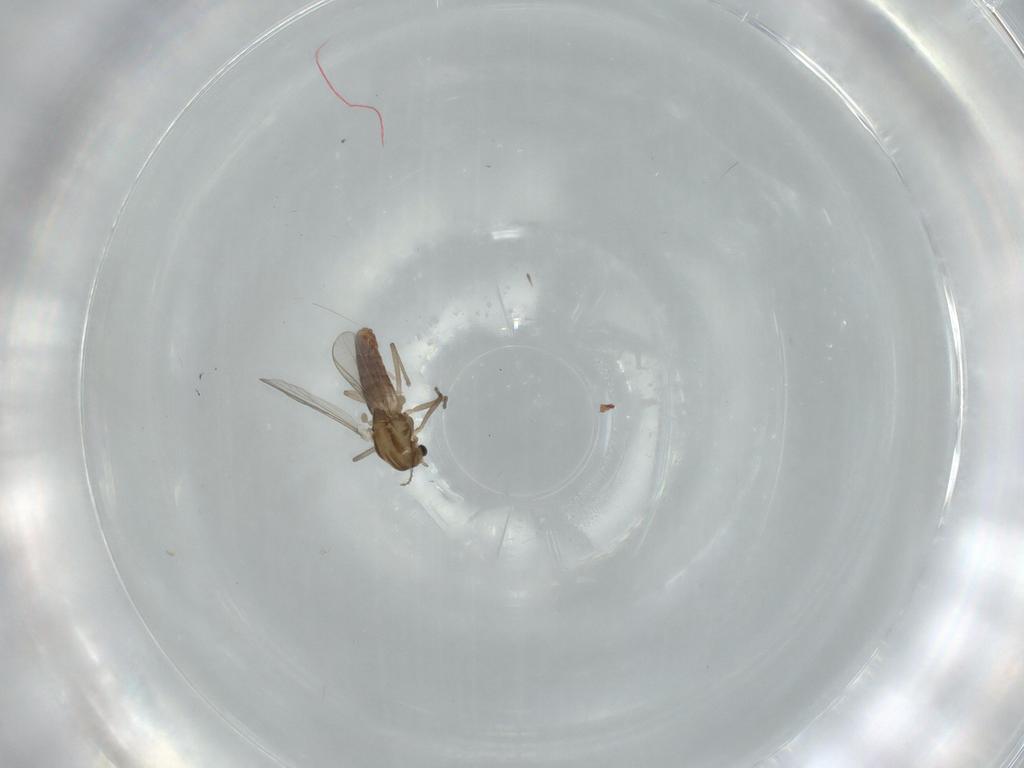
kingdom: Animalia
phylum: Arthropoda
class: Insecta
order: Diptera
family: Chironomidae
